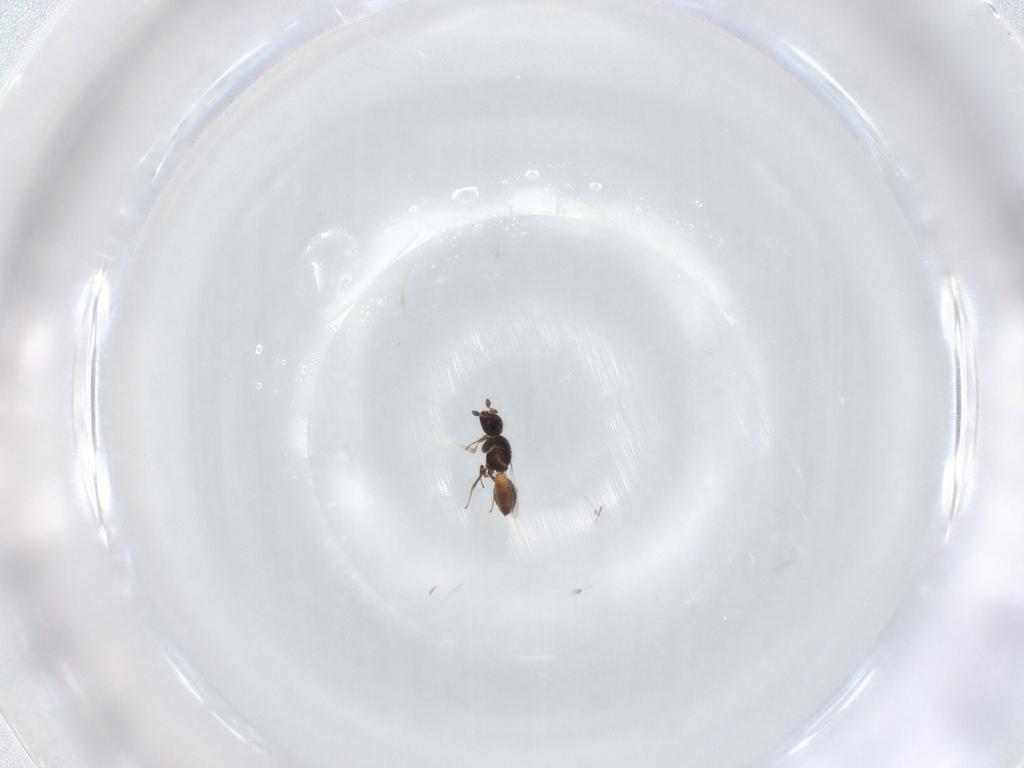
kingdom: Animalia
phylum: Arthropoda
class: Insecta
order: Hymenoptera
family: Scelionidae
